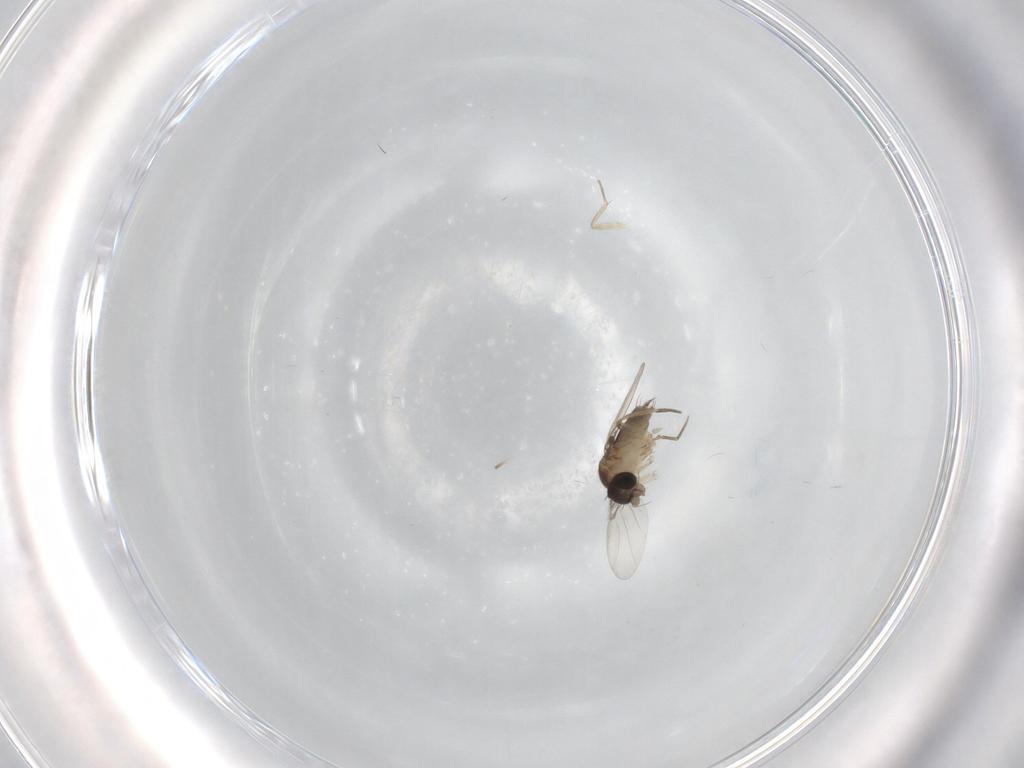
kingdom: Animalia
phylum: Arthropoda
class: Insecta
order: Diptera
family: Phoridae
